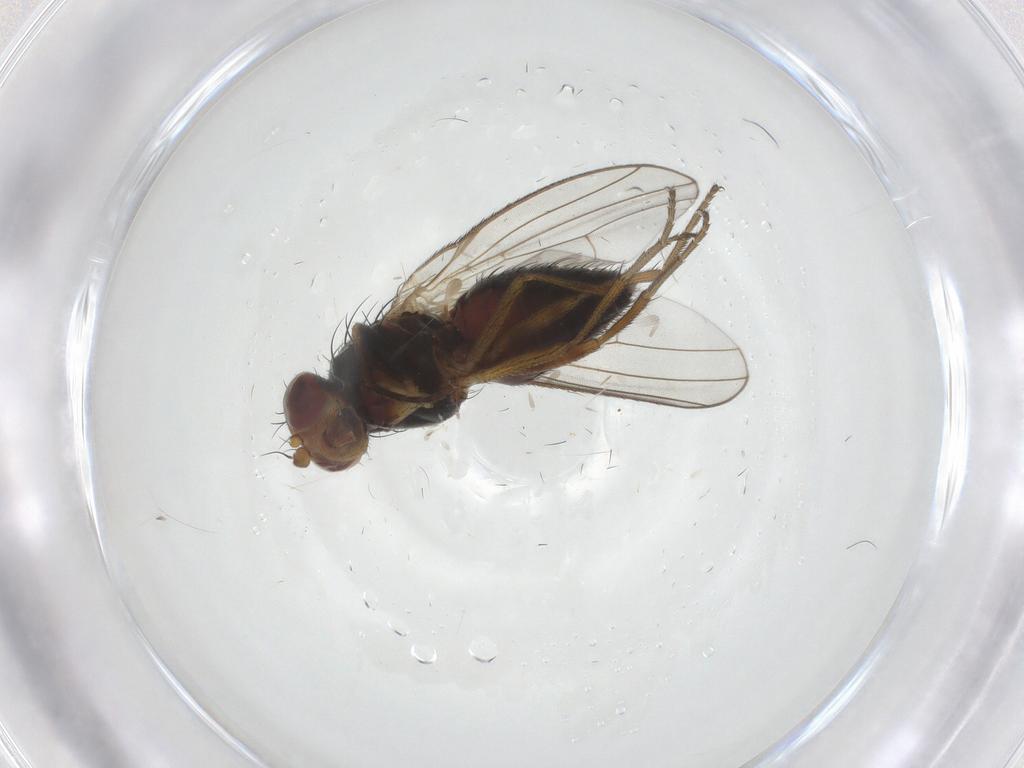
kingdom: Animalia
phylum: Arthropoda
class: Insecta
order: Diptera
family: Heleomyzidae
